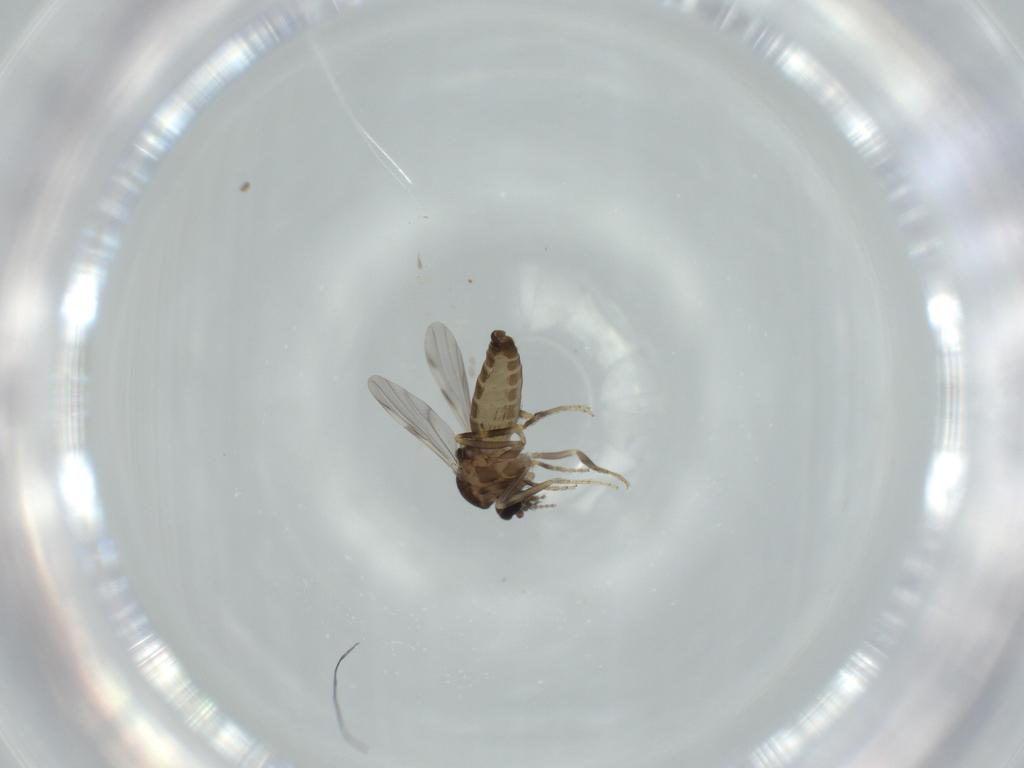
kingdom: Animalia
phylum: Arthropoda
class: Insecta
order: Diptera
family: Ceratopogonidae
